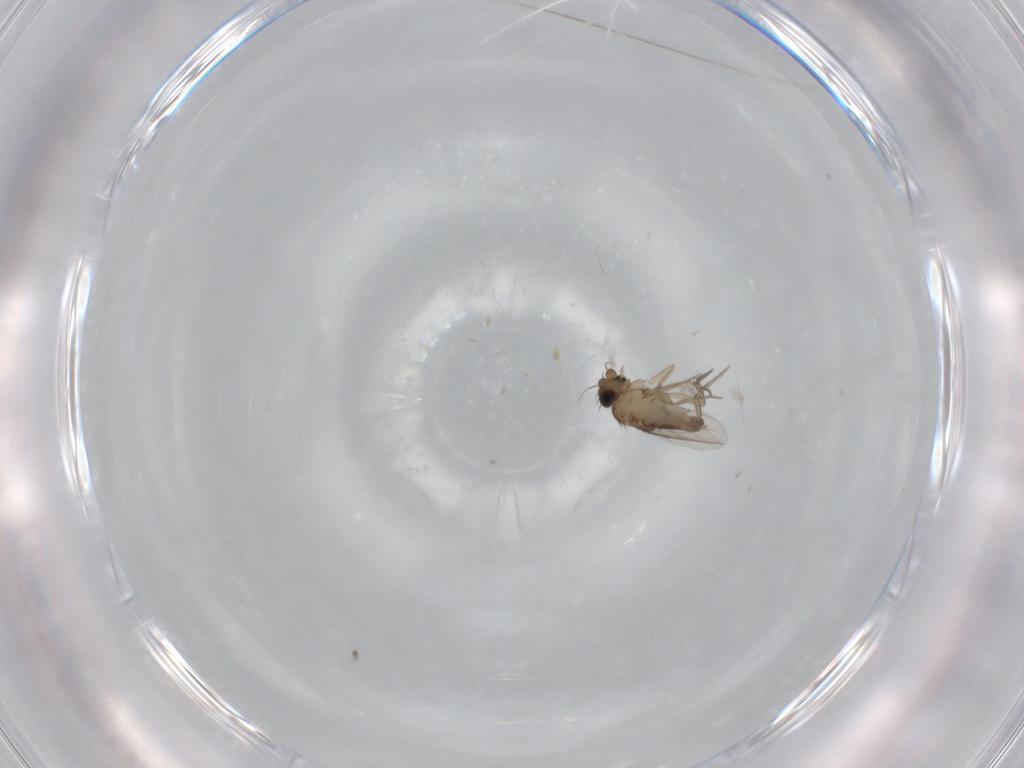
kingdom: Animalia
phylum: Arthropoda
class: Insecta
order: Diptera
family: Phoridae
